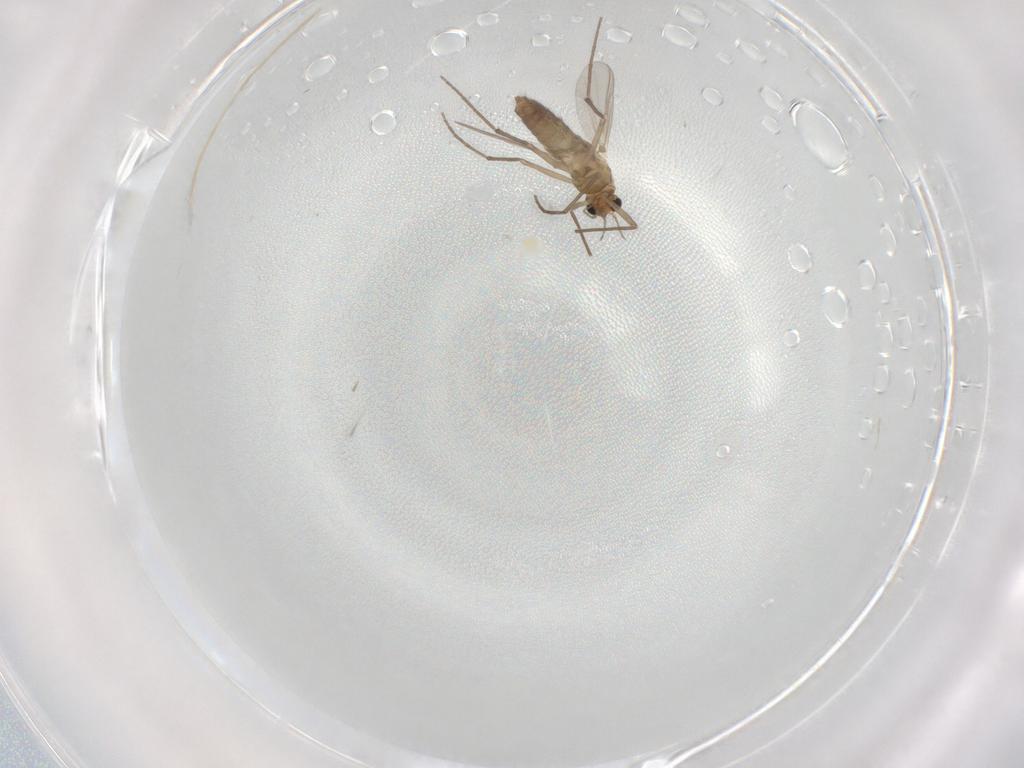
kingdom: Animalia
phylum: Arthropoda
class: Insecta
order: Diptera
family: Chironomidae
